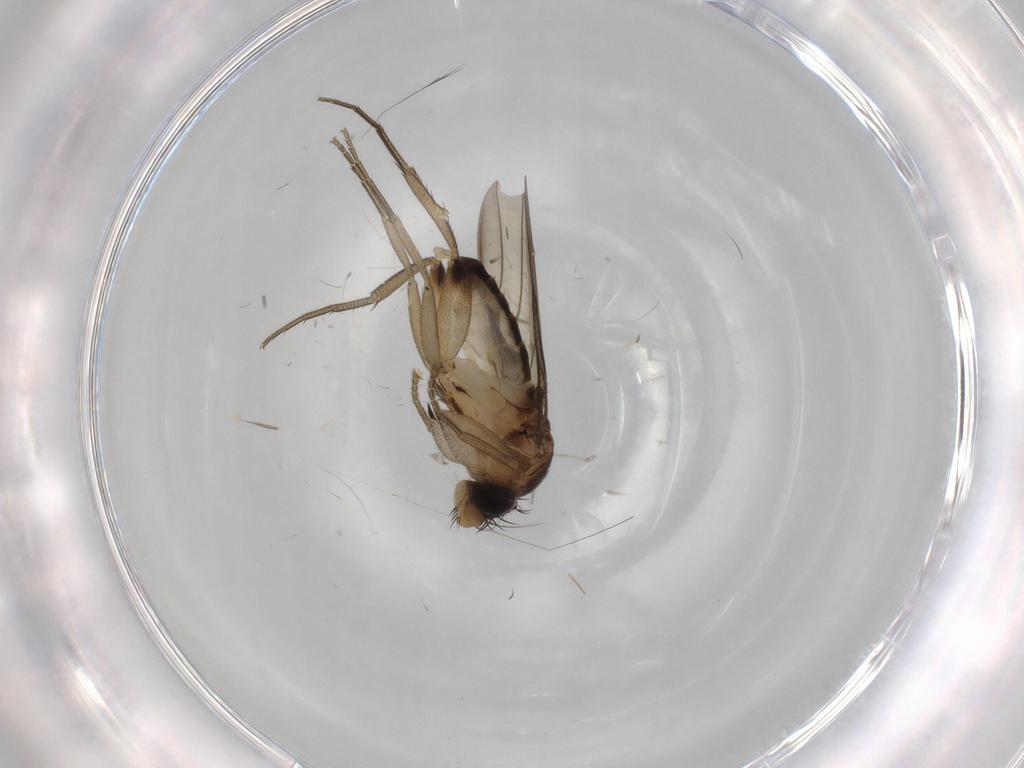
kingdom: Animalia
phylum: Arthropoda
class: Insecta
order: Diptera
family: Phoridae
